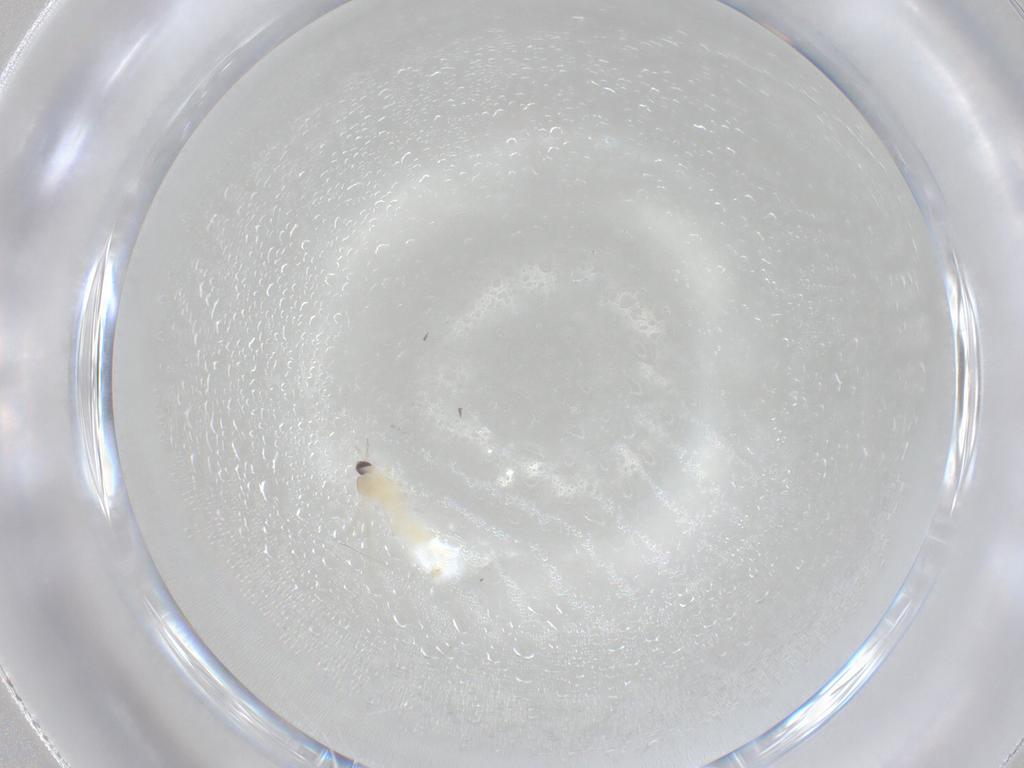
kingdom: Animalia
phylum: Arthropoda
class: Insecta
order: Diptera
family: Cecidomyiidae
